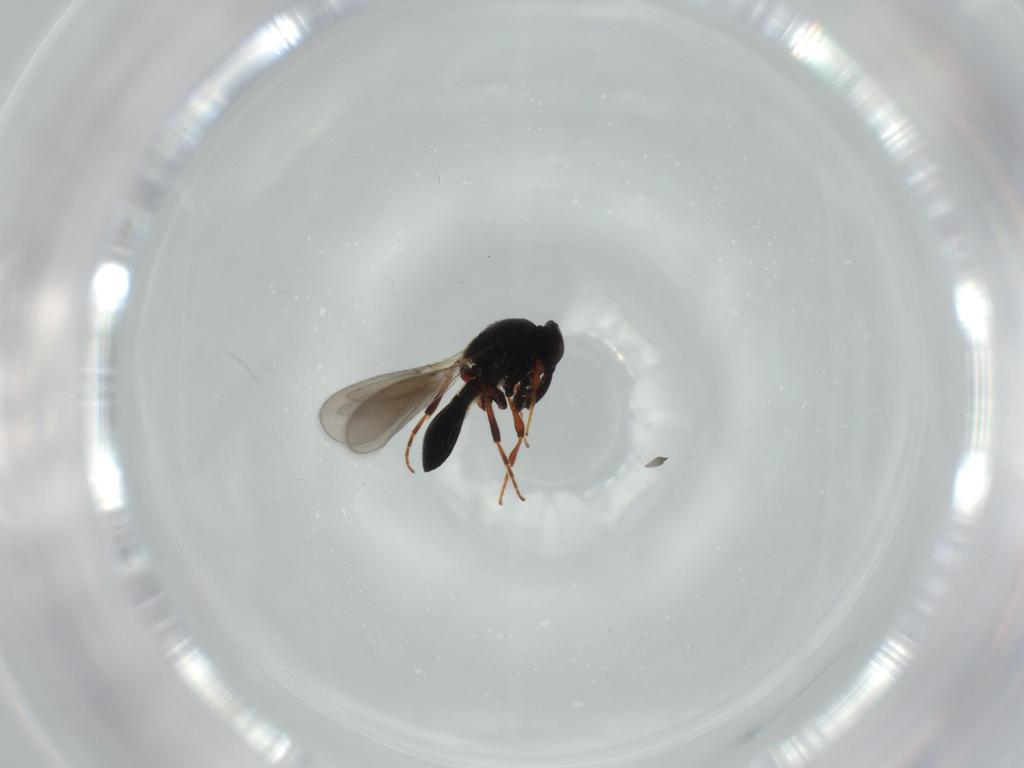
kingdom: Animalia
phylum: Arthropoda
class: Insecta
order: Hymenoptera
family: Platygastridae
